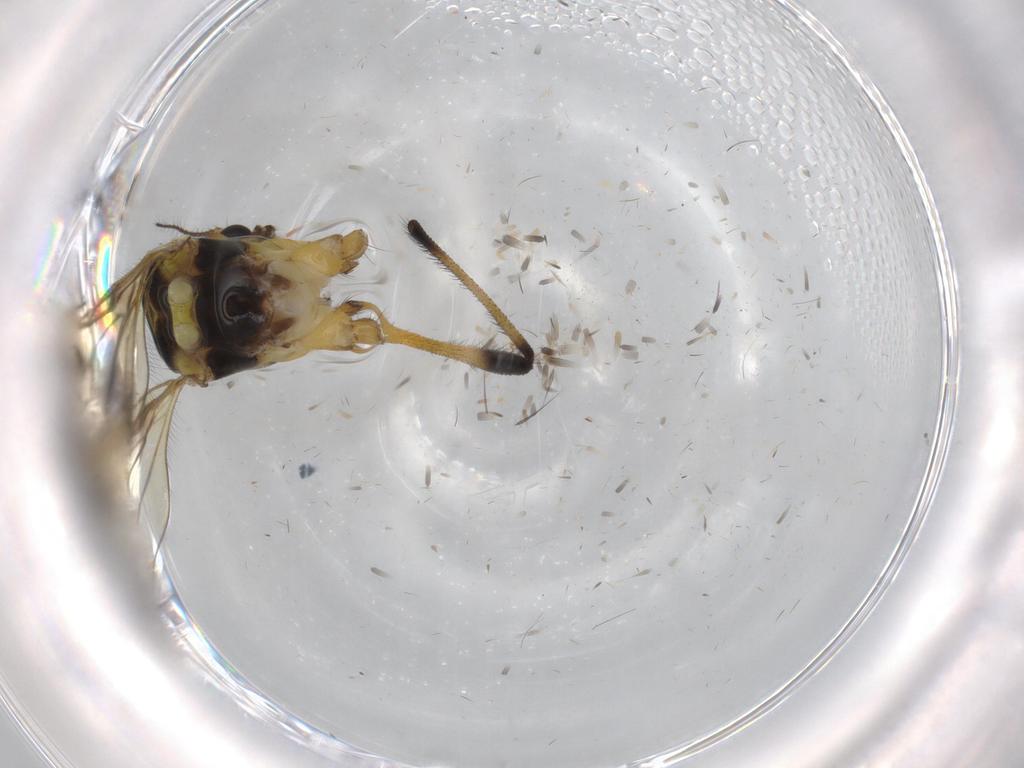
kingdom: Animalia
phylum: Arthropoda
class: Insecta
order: Diptera
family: Limoniidae
